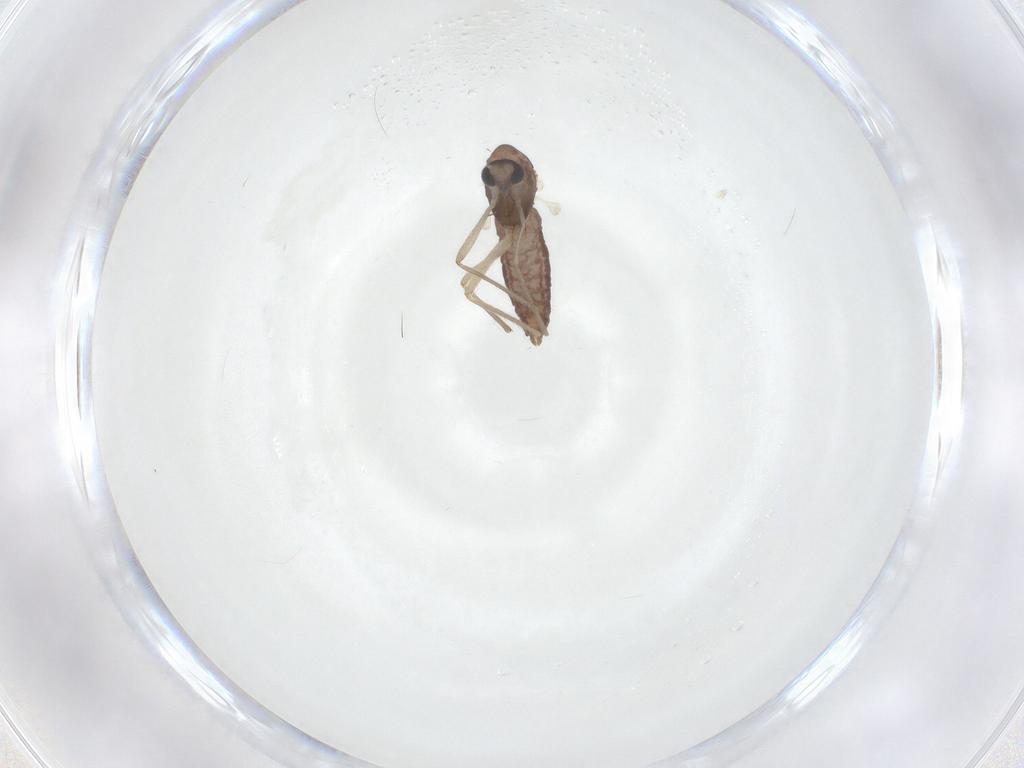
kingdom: Animalia
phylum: Arthropoda
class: Insecta
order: Diptera
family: Chironomidae
